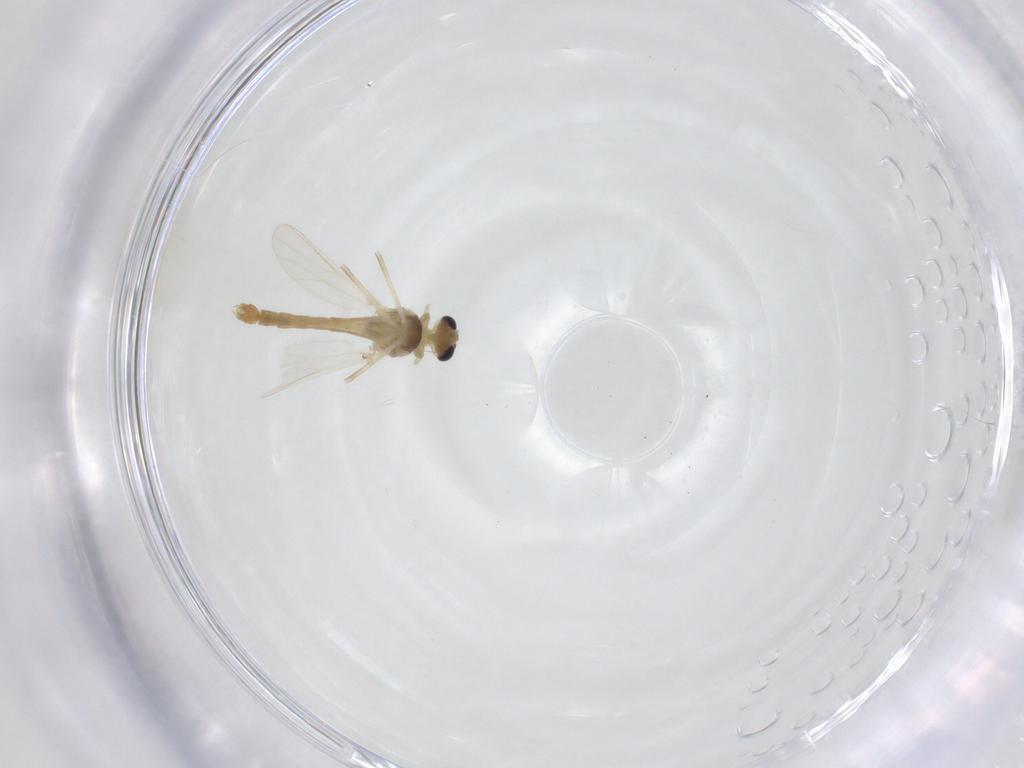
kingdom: Animalia
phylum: Arthropoda
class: Insecta
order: Diptera
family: Chironomidae
